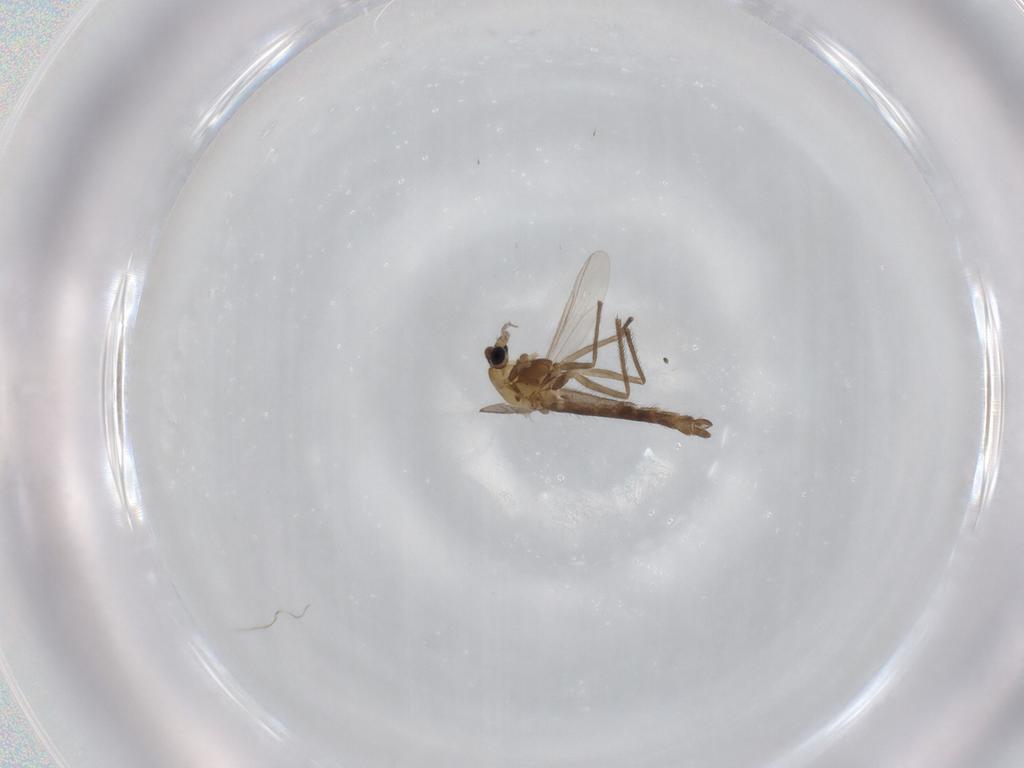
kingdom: Animalia
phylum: Arthropoda
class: Insecta
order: Diptera
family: Chironomidae
